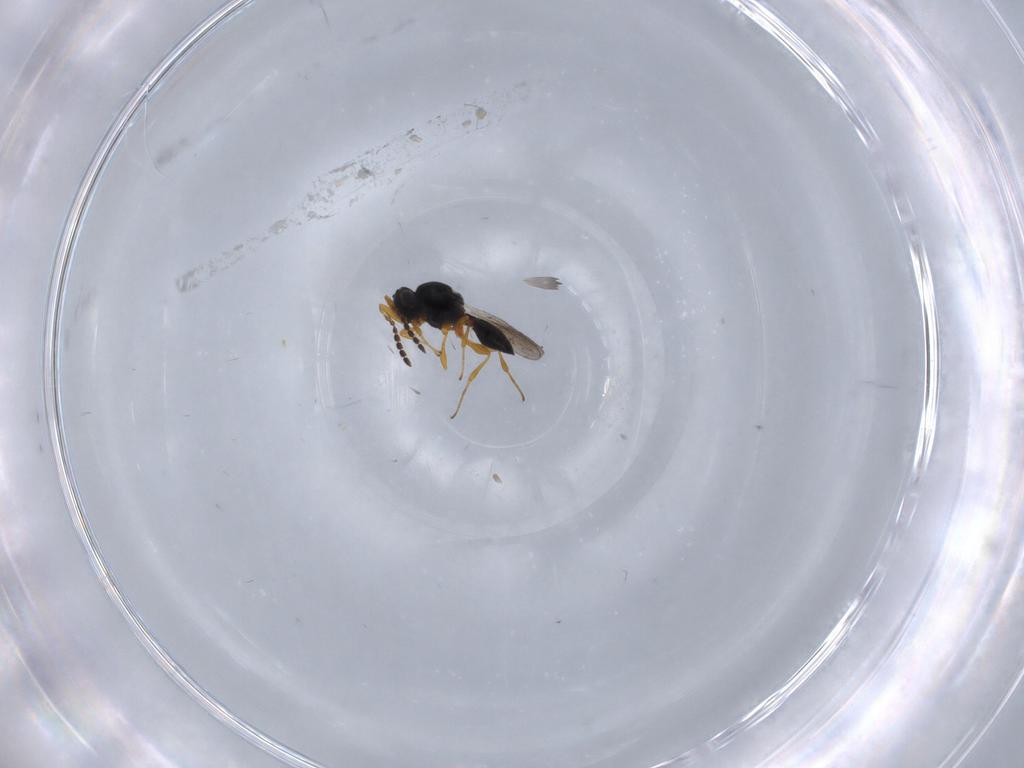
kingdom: Animalia
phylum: Arthropoda
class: Insecta
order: Hymenoptera
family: Platygastridae
